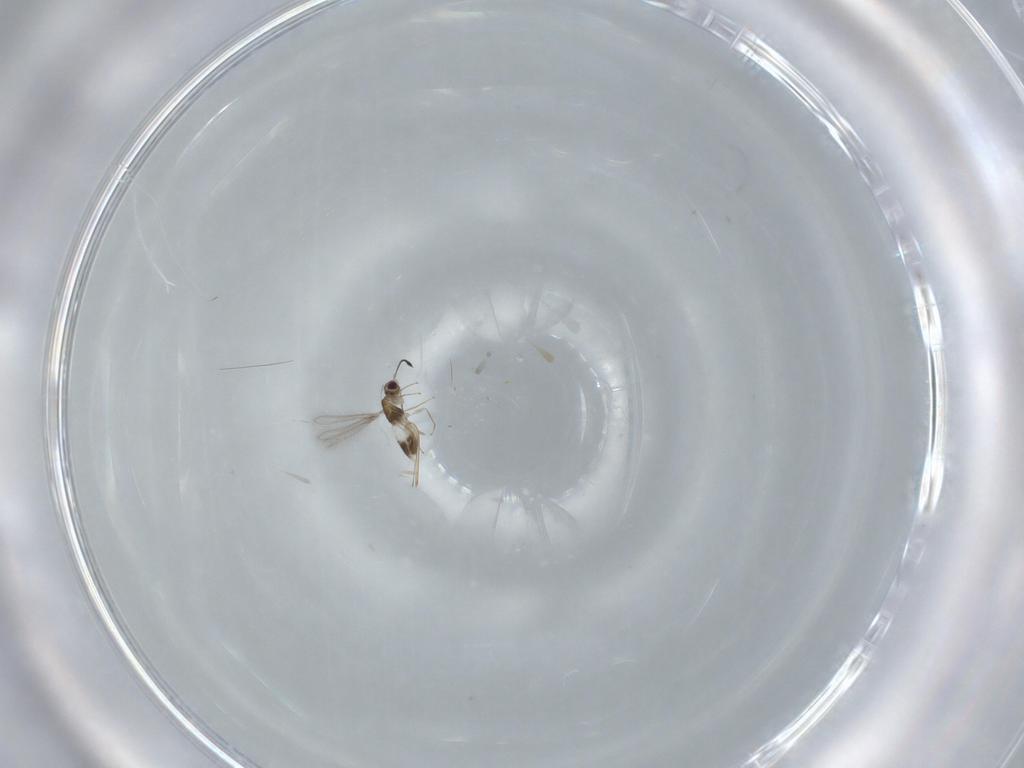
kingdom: Animalia
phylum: Arthropoda
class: Insecta
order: Hymenoptera
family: Mymaridae
